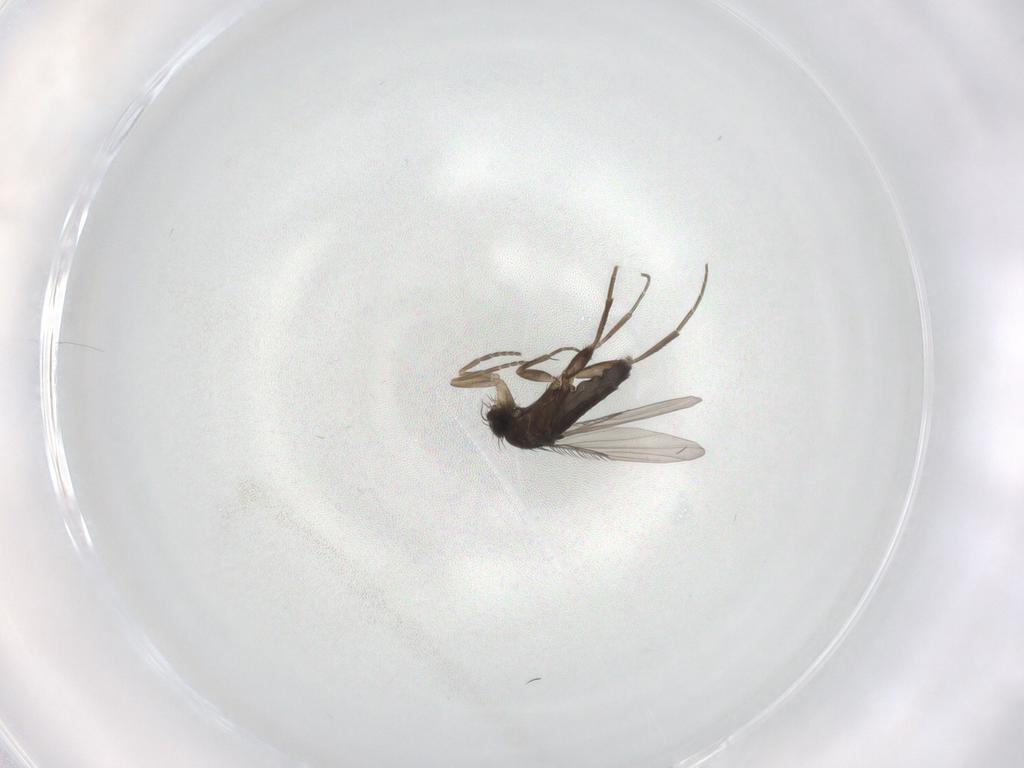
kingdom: Animalia
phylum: Arthropoda
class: Insecta
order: Diptera
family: Phoridae
